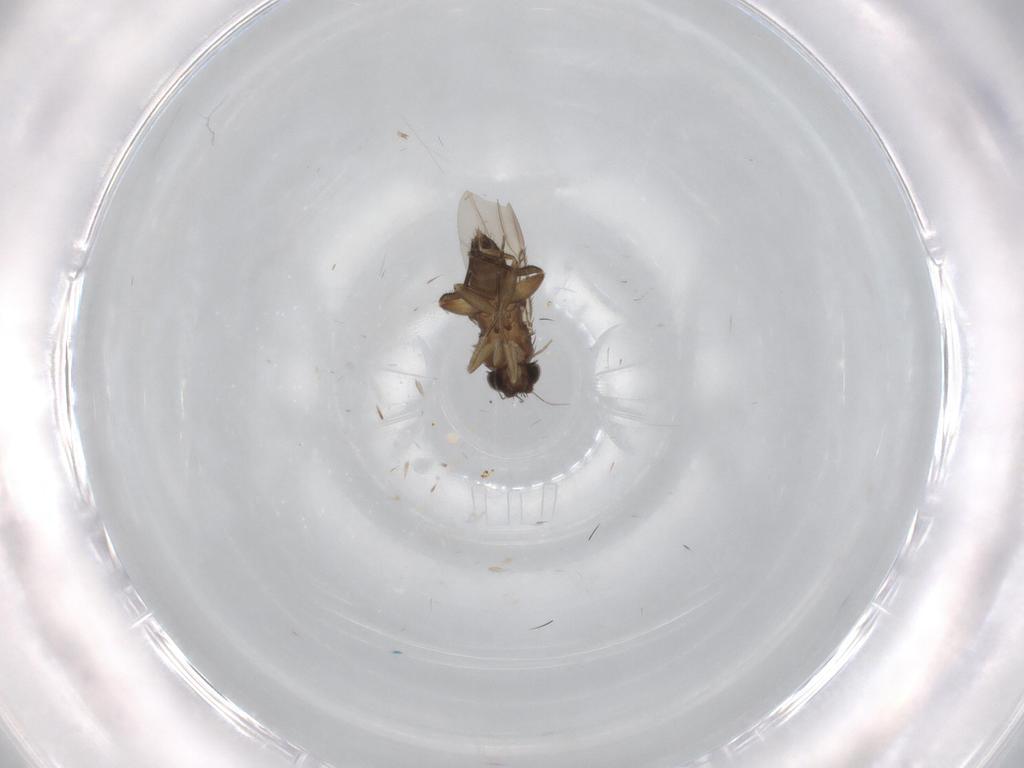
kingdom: Animalia
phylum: Arthropoda
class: Insecta
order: Diptera
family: Phoridae
